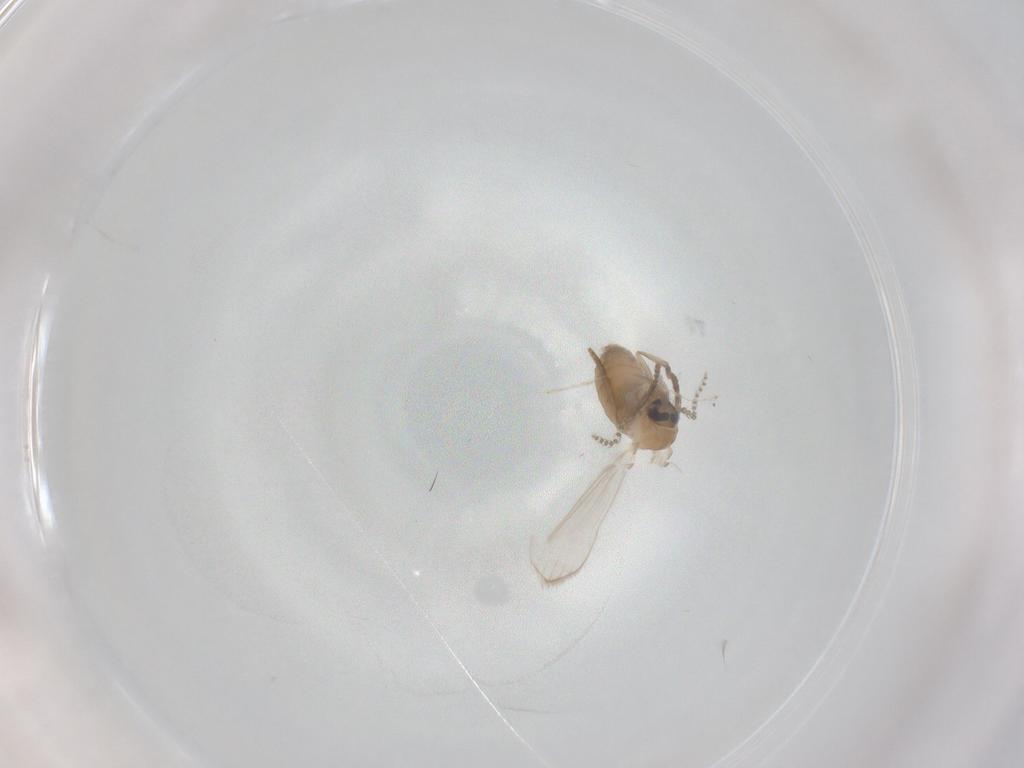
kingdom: Animalia
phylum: Arthropoda
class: Insecta
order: Diptera
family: Psychodidae
